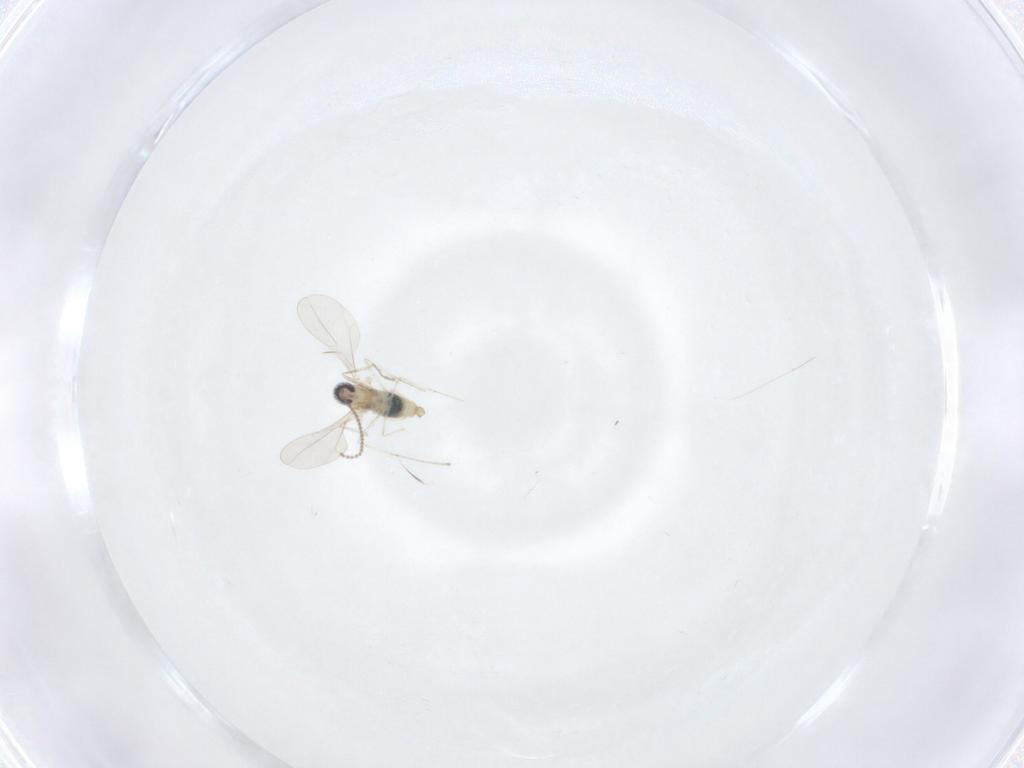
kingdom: Animalia
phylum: Arthropoda
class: Insecta
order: Diptera
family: Cecidomyiidae
